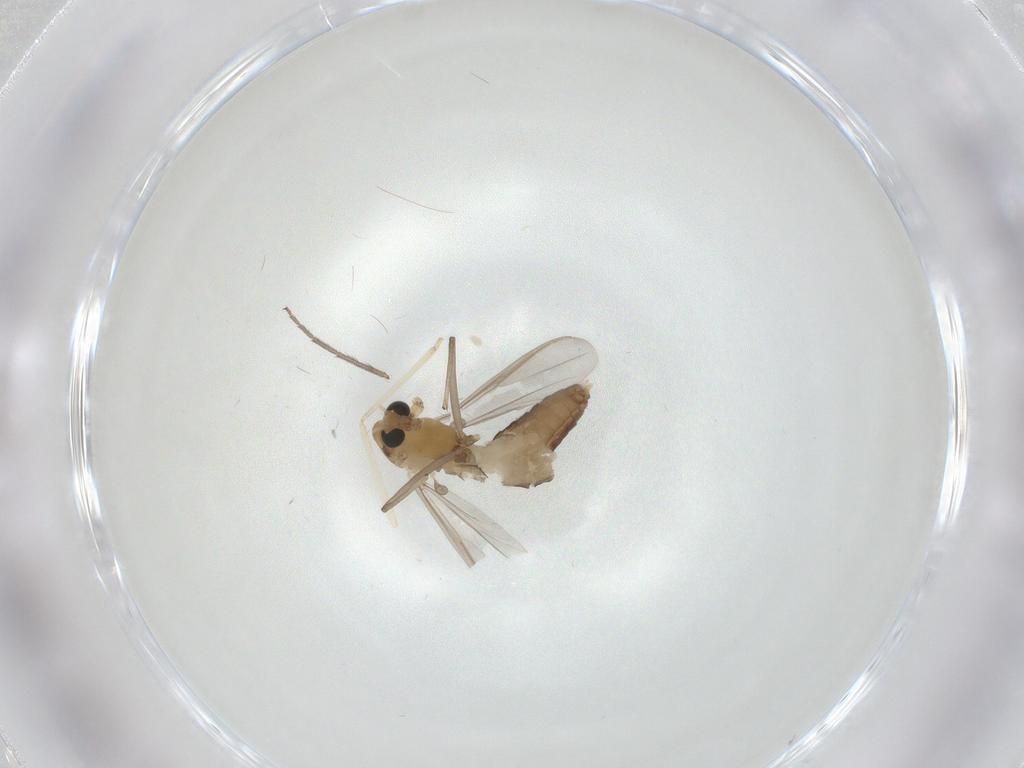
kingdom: Animalia
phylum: Arthropoda
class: Insecta
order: Diptera
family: Chironomidae
